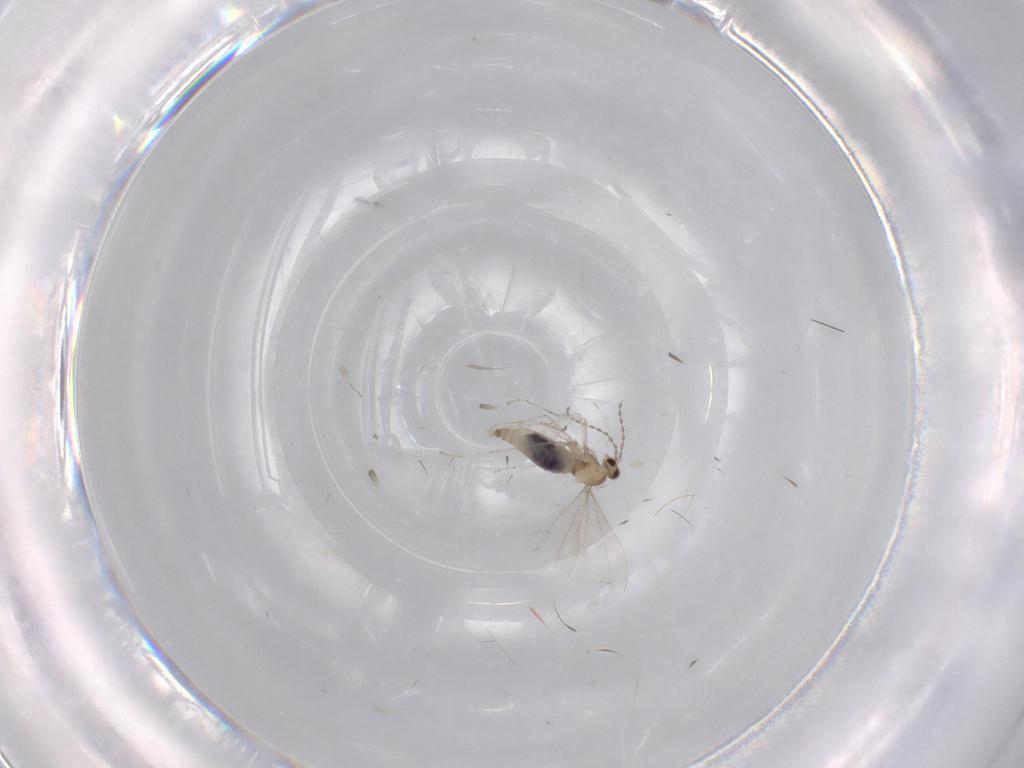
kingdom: Animalia
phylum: Arthropoda
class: Insecta
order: Diptera
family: Cecidomyiidae
